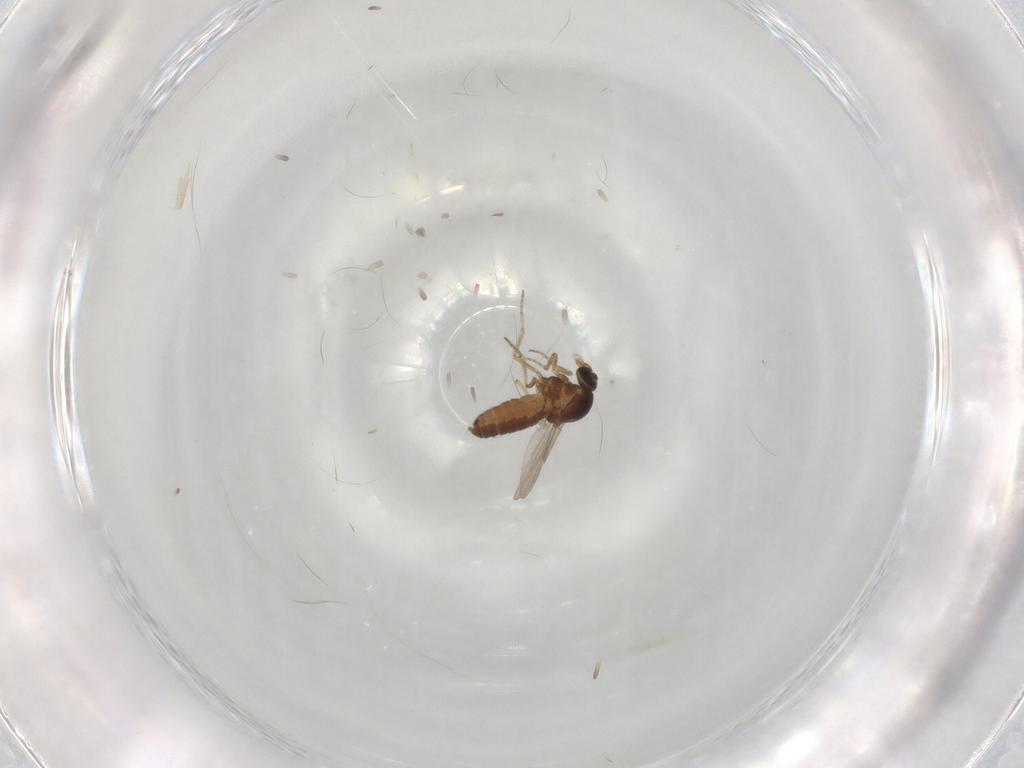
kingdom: Animalia
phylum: Arthropoda
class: Insecta
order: Diptera
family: Ceratopogonidae
